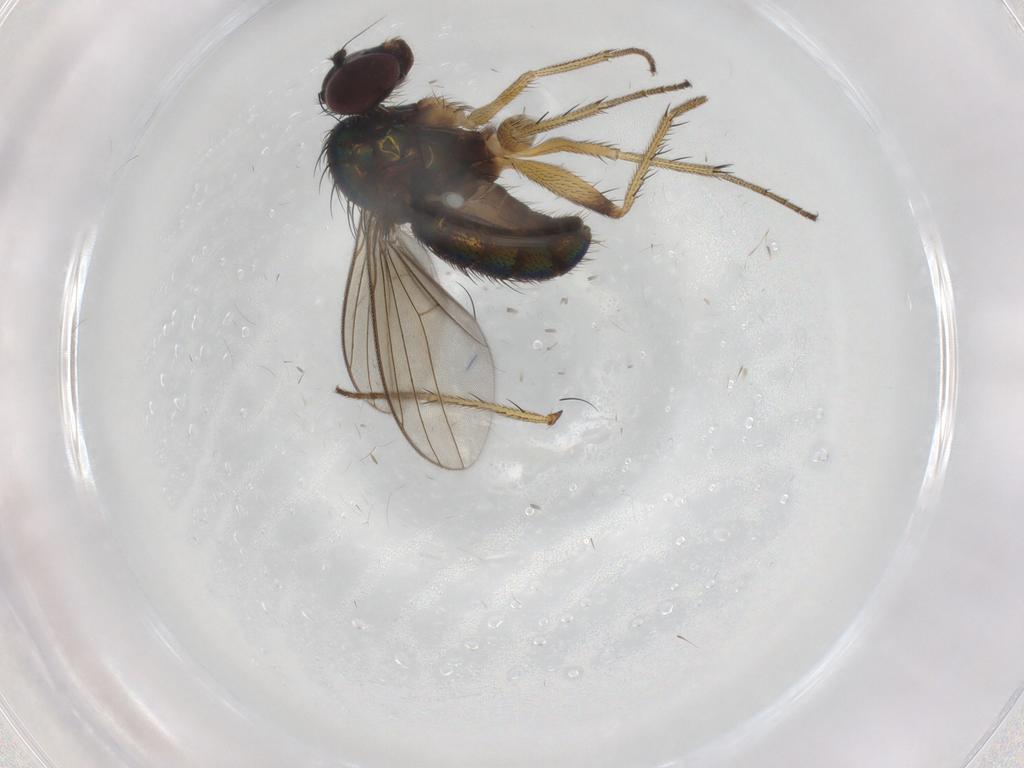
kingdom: Animalia
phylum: Arthropoda
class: Insecta
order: Diptera
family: Dolichopodidae
